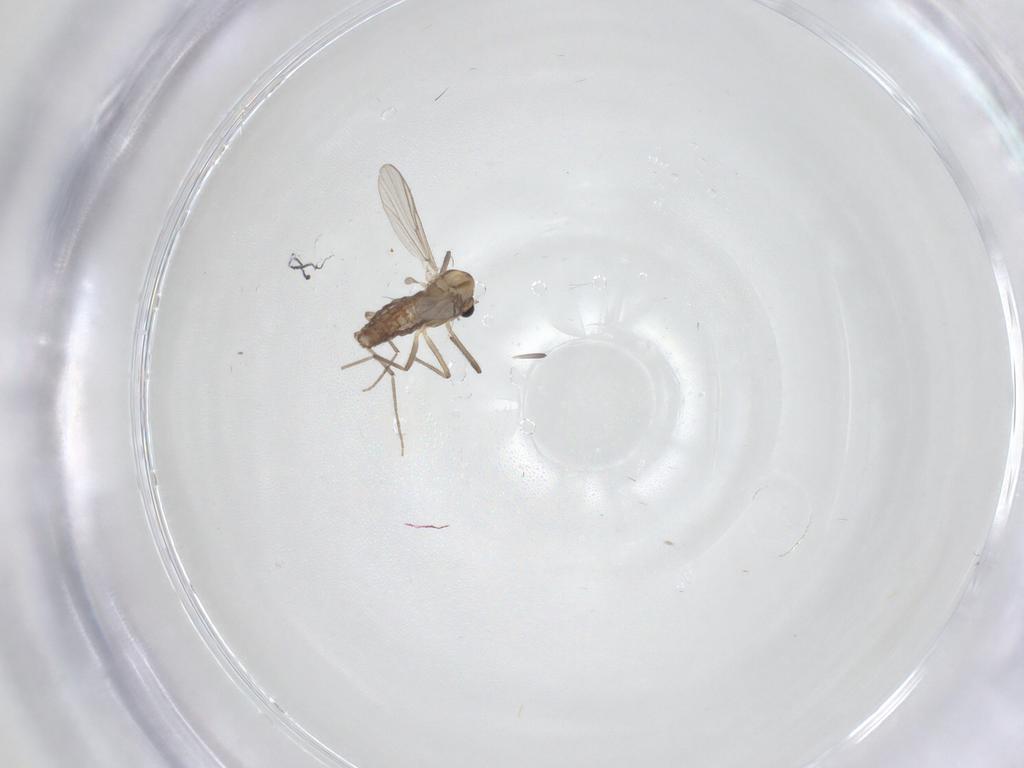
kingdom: Animalia
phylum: Arthropoda
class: Insecta
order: Diptera
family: Chironomidae
